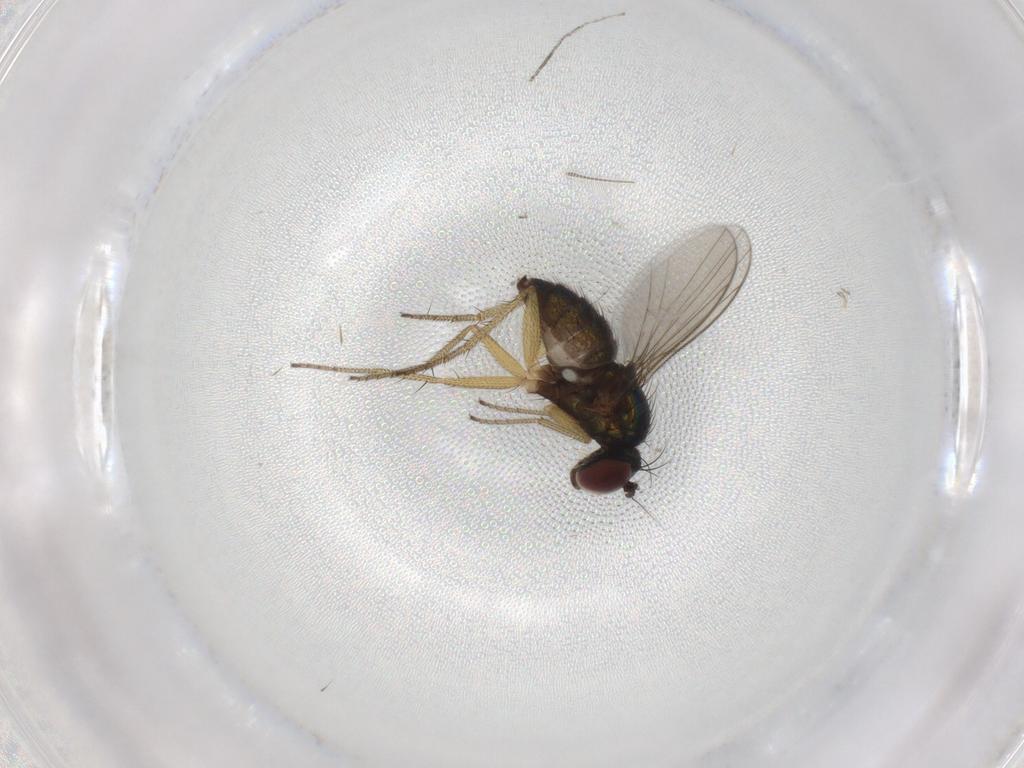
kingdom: Animalia
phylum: Arthropoda
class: Insecta
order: Diptera
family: Cecidomyiidae
